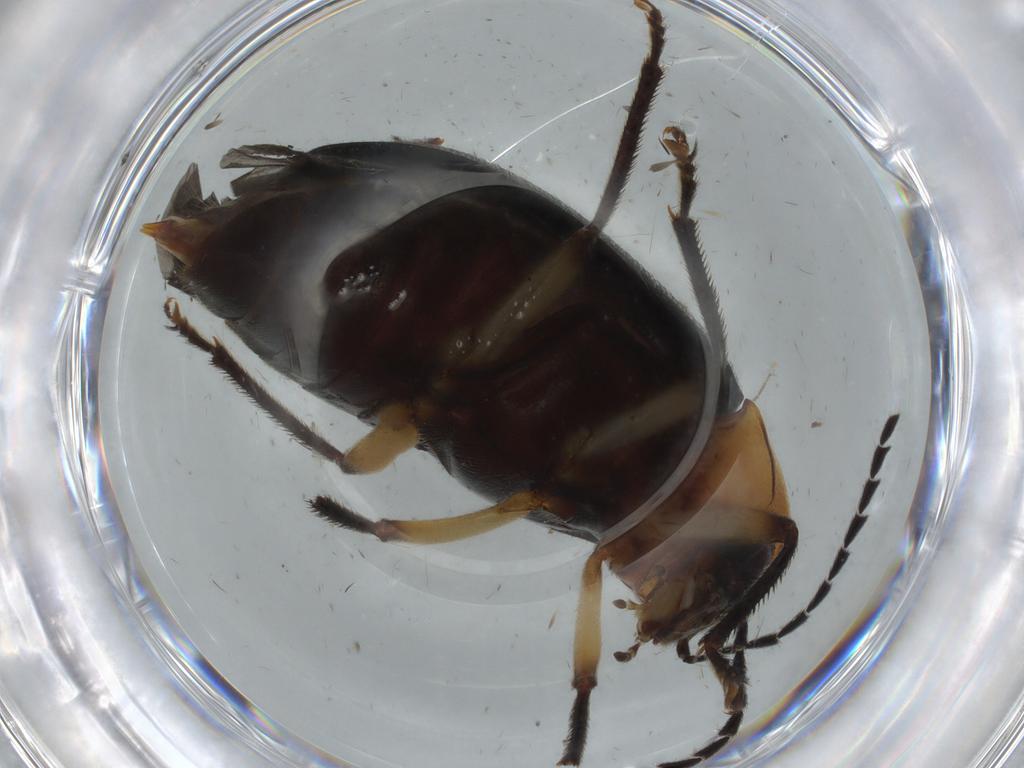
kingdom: Animalia
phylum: Arthropoda
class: Insecta
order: Coleoptera
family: Ptilodactylidae
